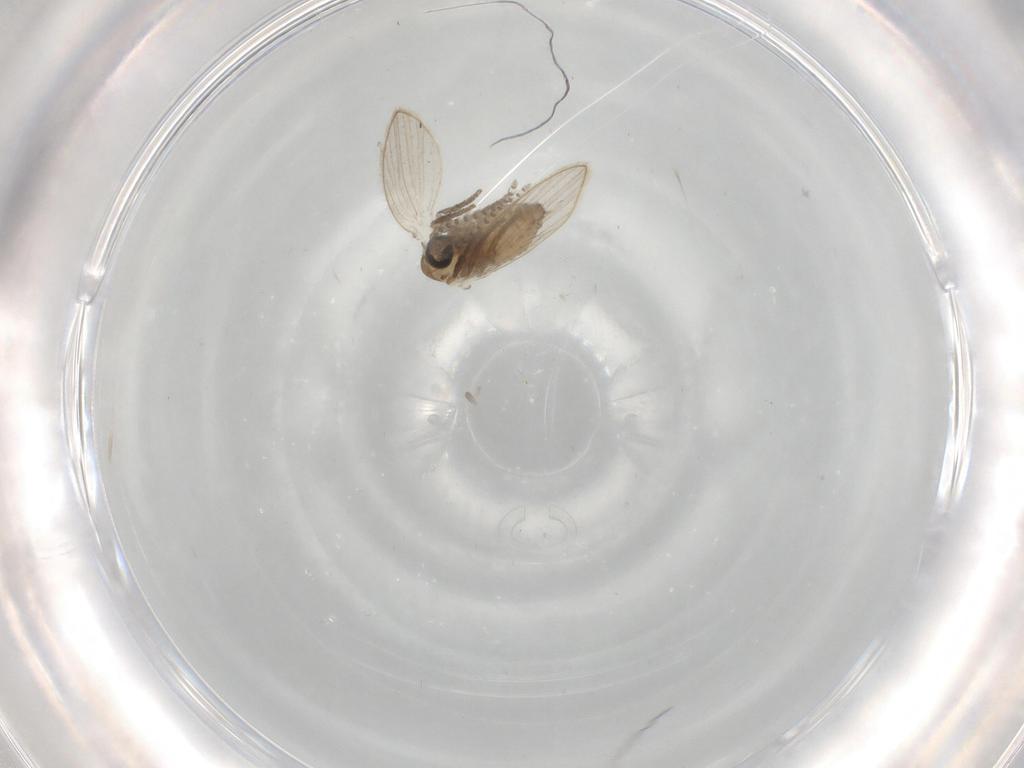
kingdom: Animalia
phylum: Arthropoda
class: Insecta
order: Diptera
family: Psychodidae
